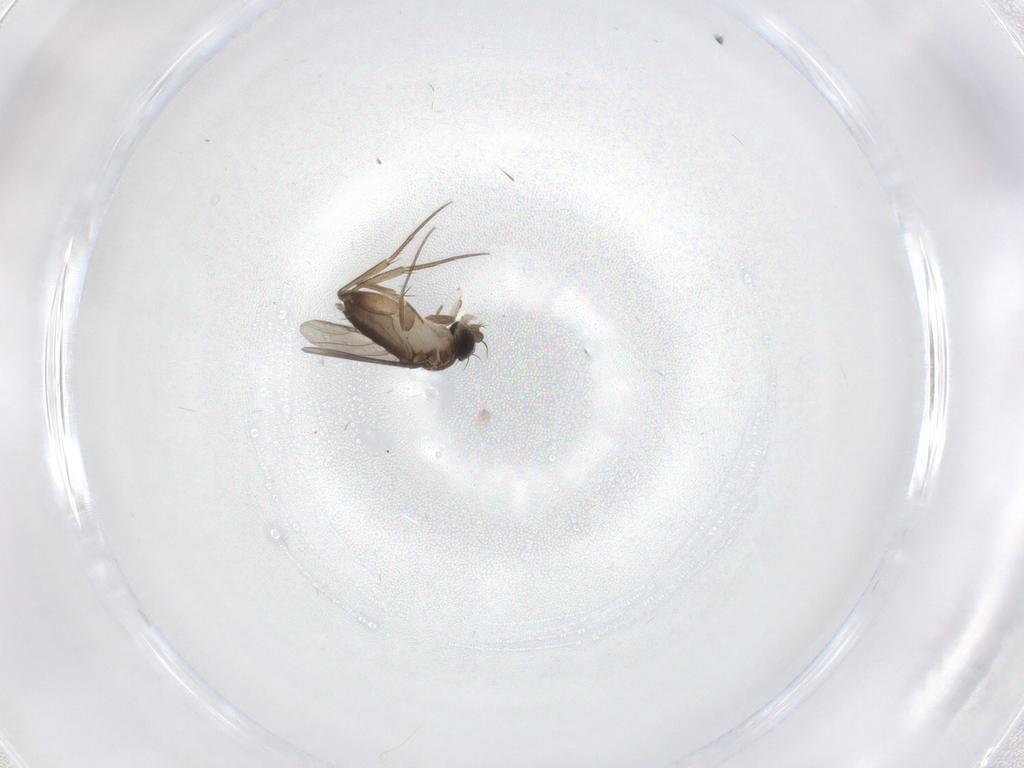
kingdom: Animalia
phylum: Arthropoda
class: Insecta
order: Diptera
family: Phoridae
